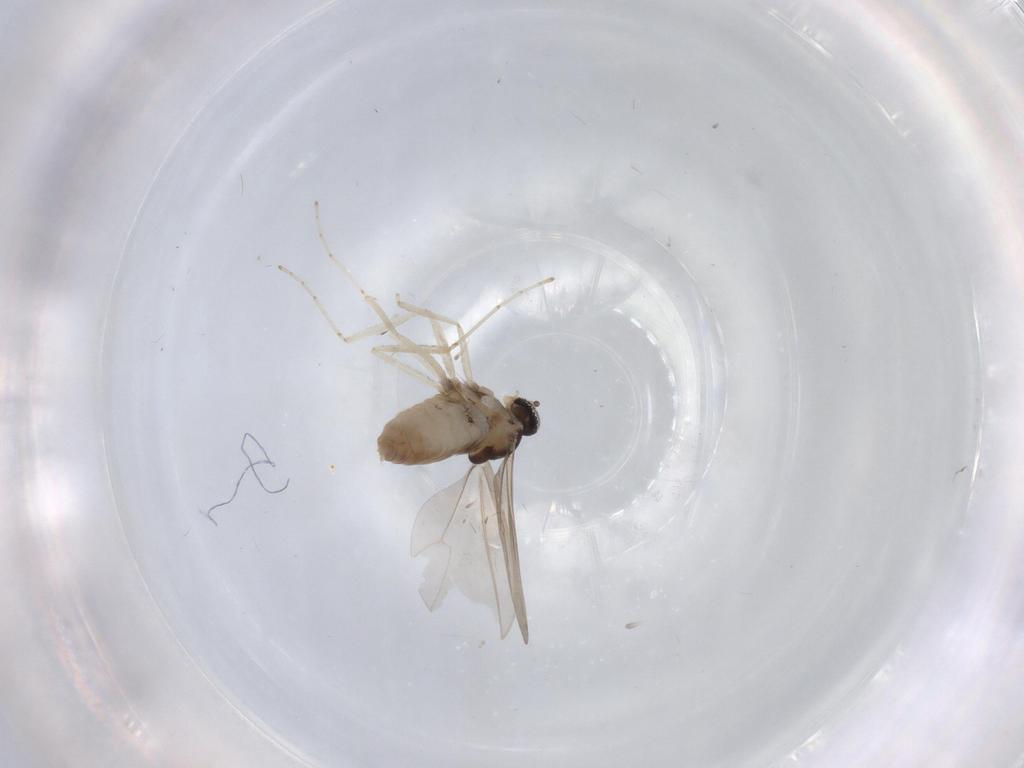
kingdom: Animalia
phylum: Arthropoda
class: Insecta
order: Diptera
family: Cecidomyiidae
